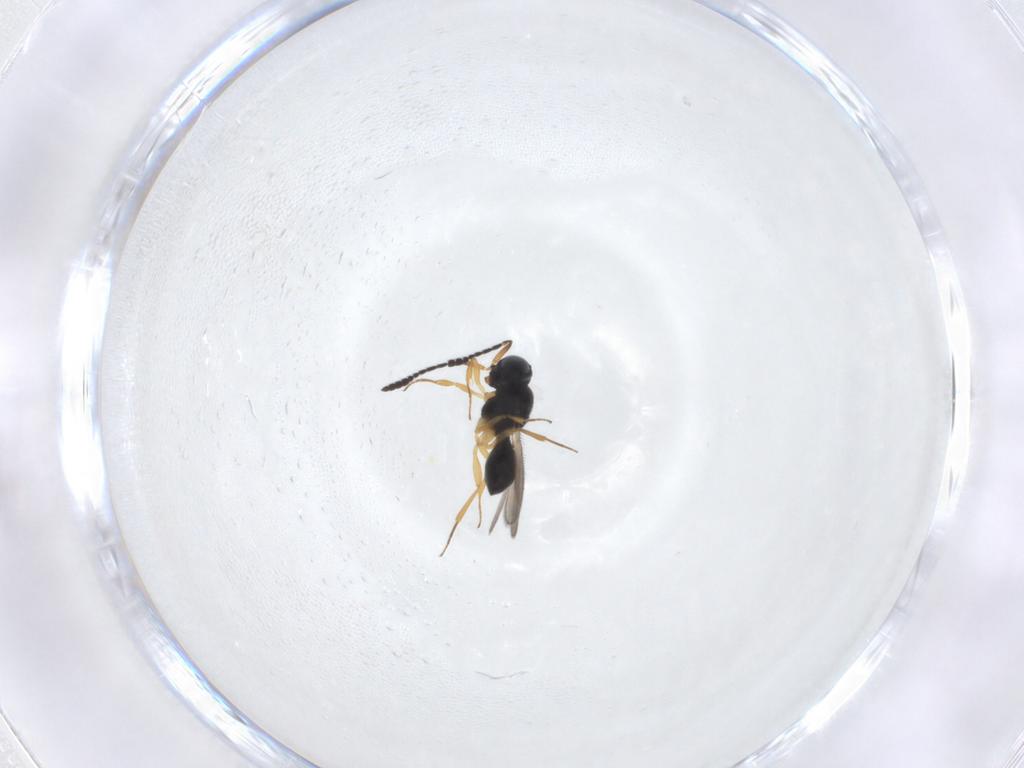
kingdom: Animalia
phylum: Arthropoda
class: Insecta
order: Hymenoptera
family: Scelionidae
